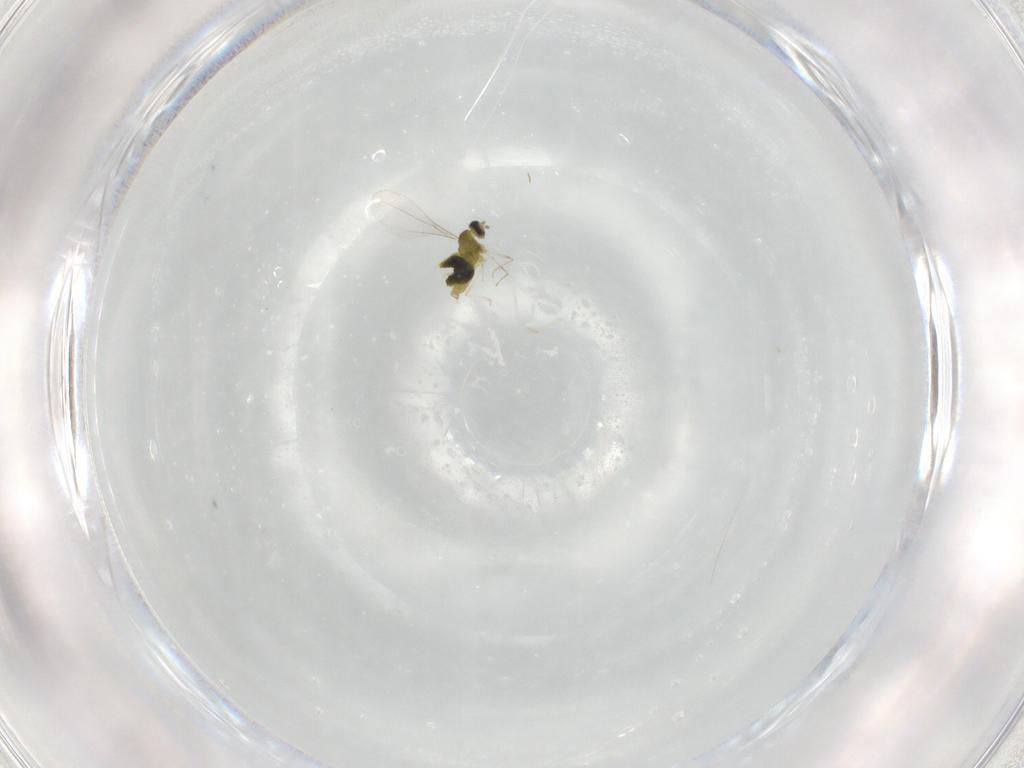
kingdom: Animalia
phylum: Arthropoda
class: Insecta
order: Diptera
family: Cecidomyiidae
